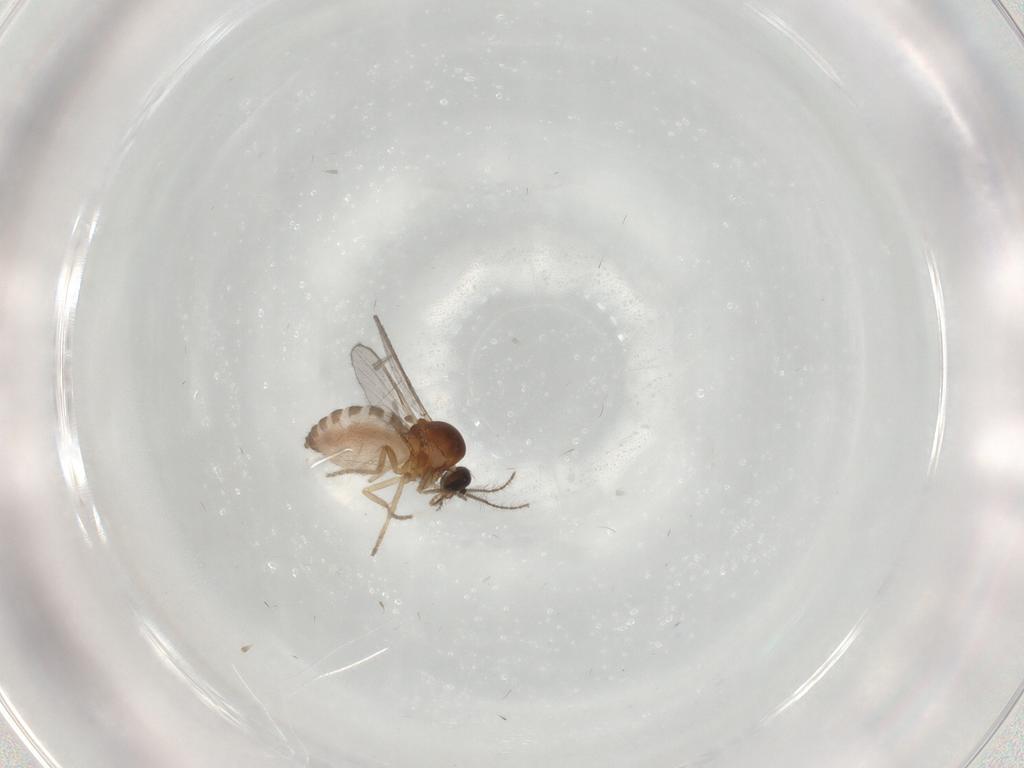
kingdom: Animalia
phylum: Arthropoda
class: Insecta
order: Diptera
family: Ceratopogonidae
